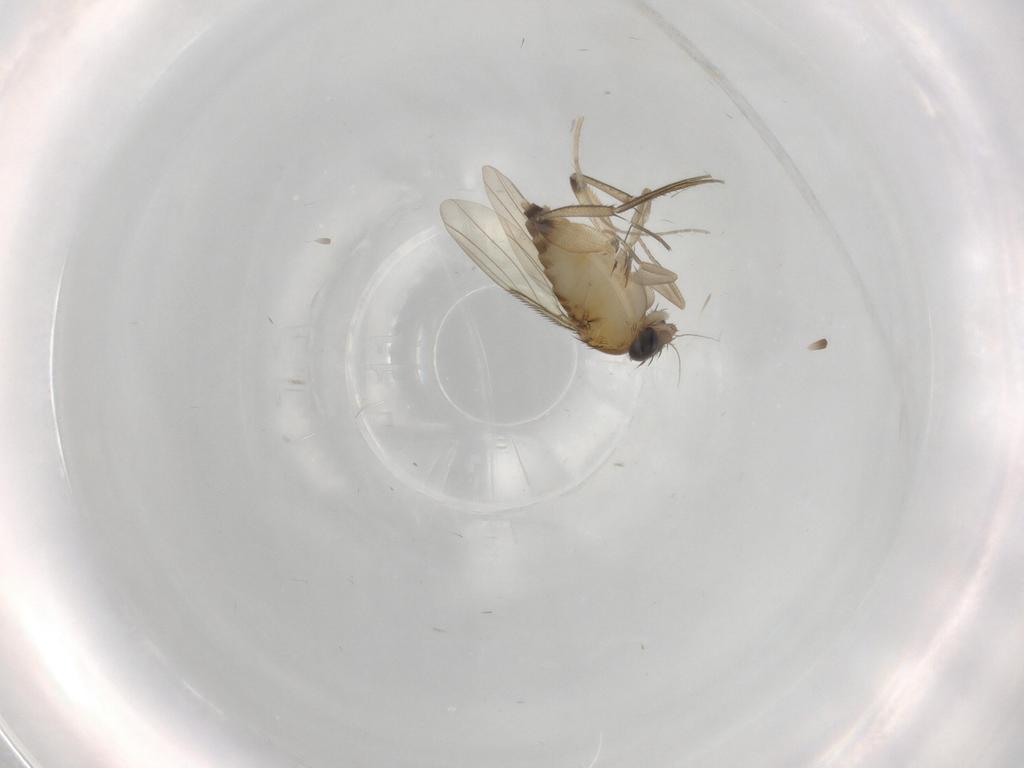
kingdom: Animalia
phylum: Arthropoda
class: Insecta
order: Diptera
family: Phoridae
